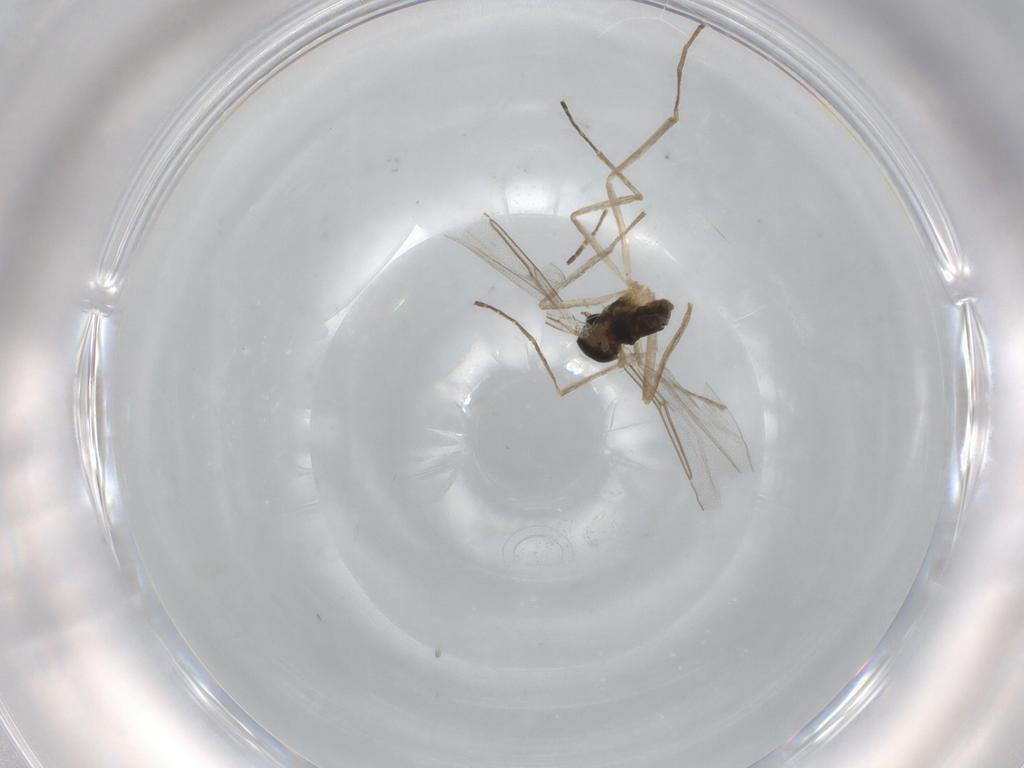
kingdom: Animalia
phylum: Arthropoda
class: Insecta
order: Diptera
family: Cecidomyiidae
